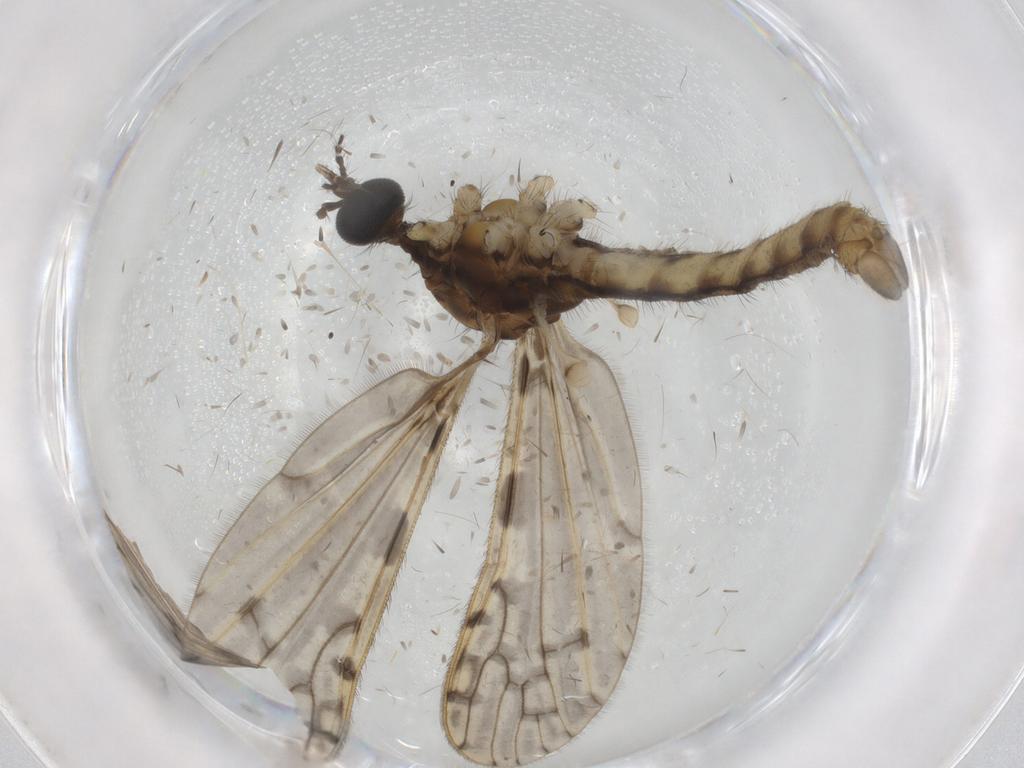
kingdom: Animalia
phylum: Arthropoda
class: Insecta
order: Diptera
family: Limoniidae
